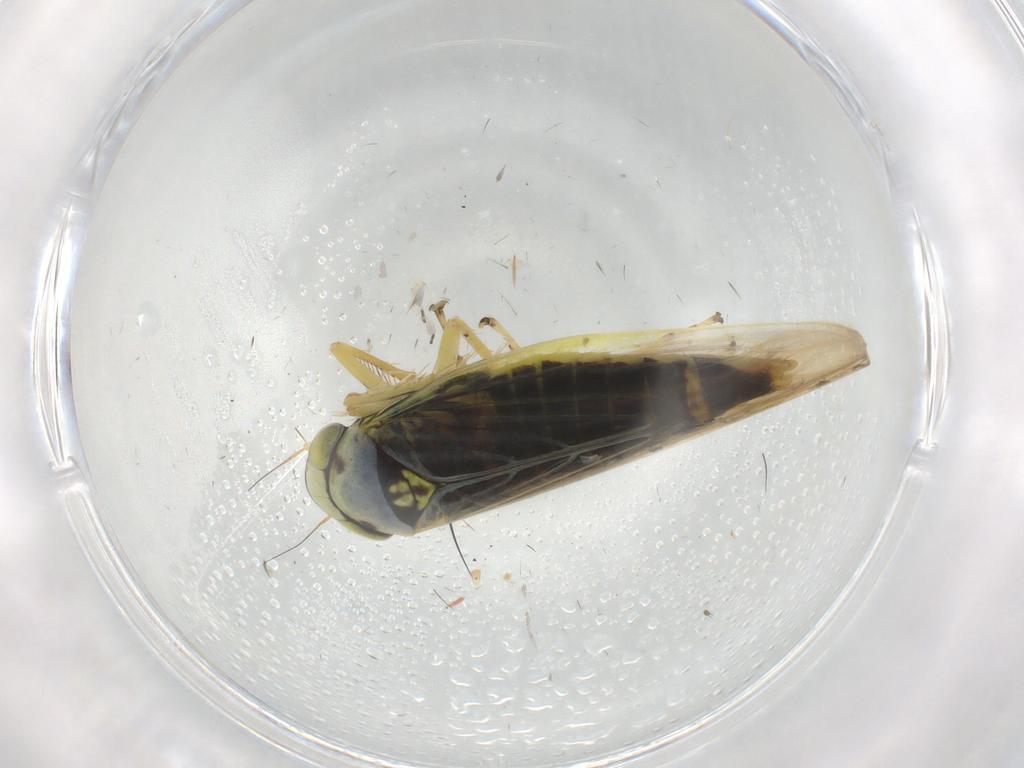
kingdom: Animalia
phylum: Arthropoda
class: Insecta
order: Hemiptera
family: Cicadellidae
